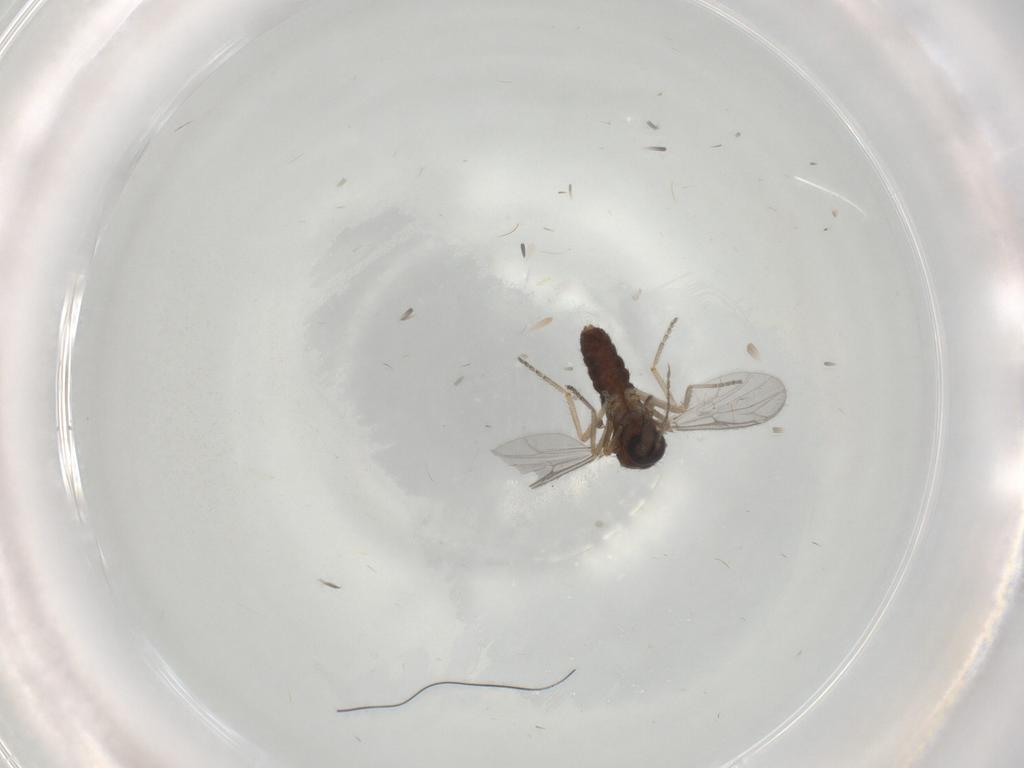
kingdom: Animalia
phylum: Arthropoda
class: Insecta
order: Diptera
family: Ceratopogonidae
